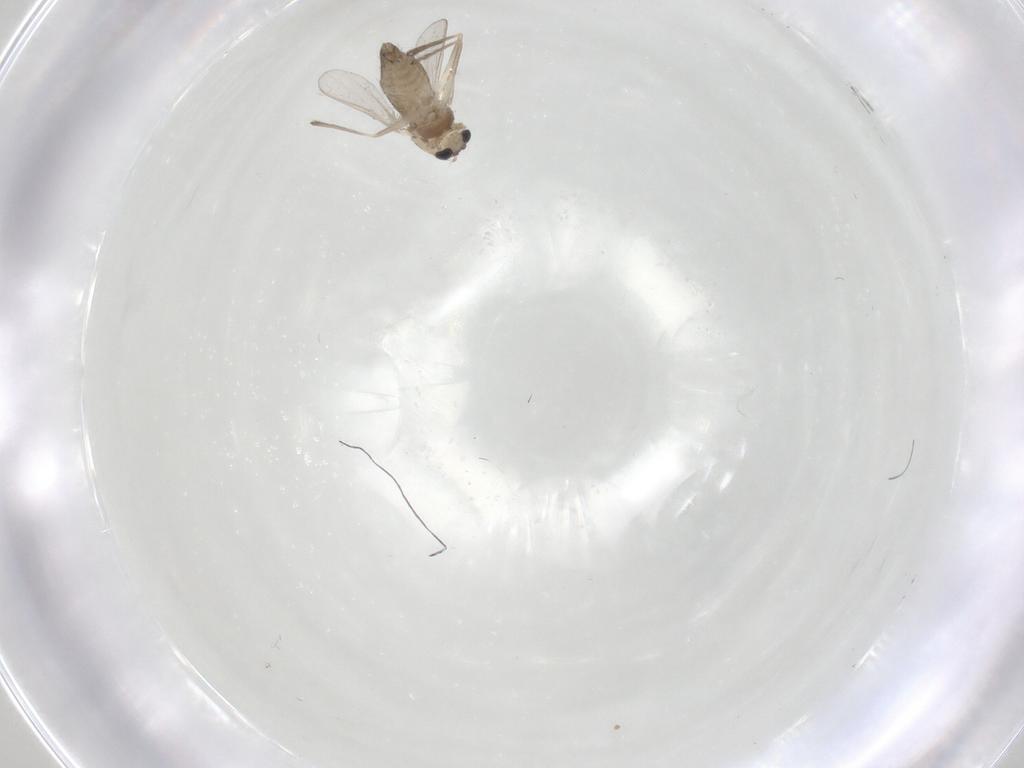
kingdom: Animalia
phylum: Arthropoda
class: Insecta
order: Diptera
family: Chironomidae
